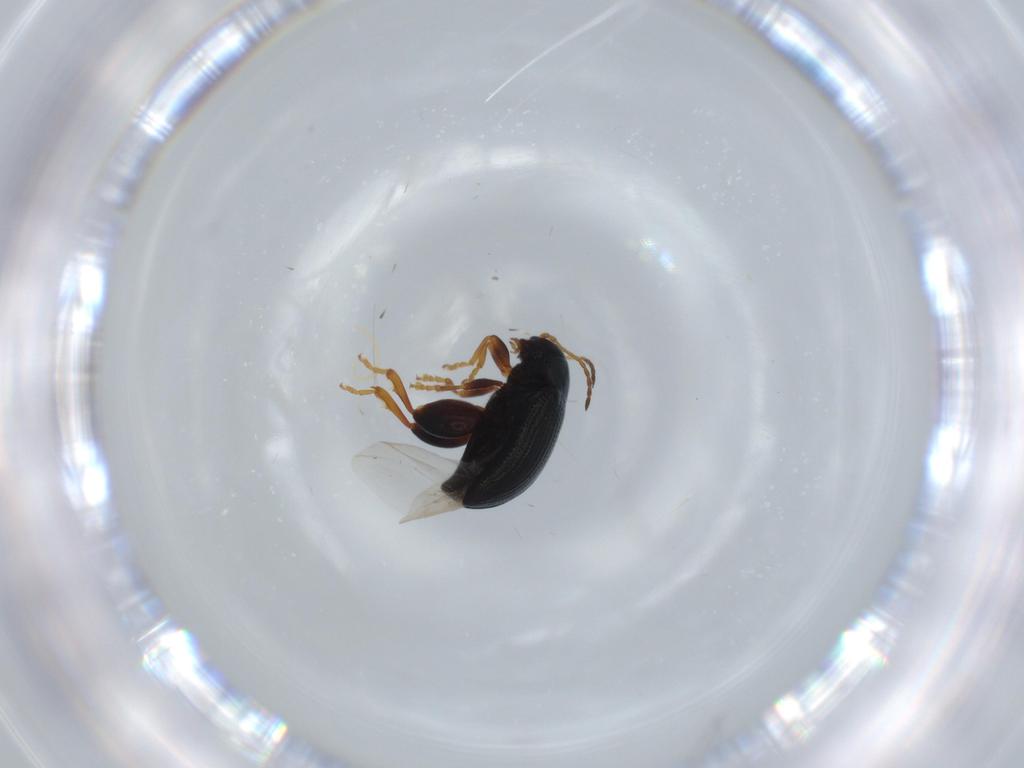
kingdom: Animalia
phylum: Arthropoda
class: Insecta
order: Coleoptera
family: Chrysomelidae
